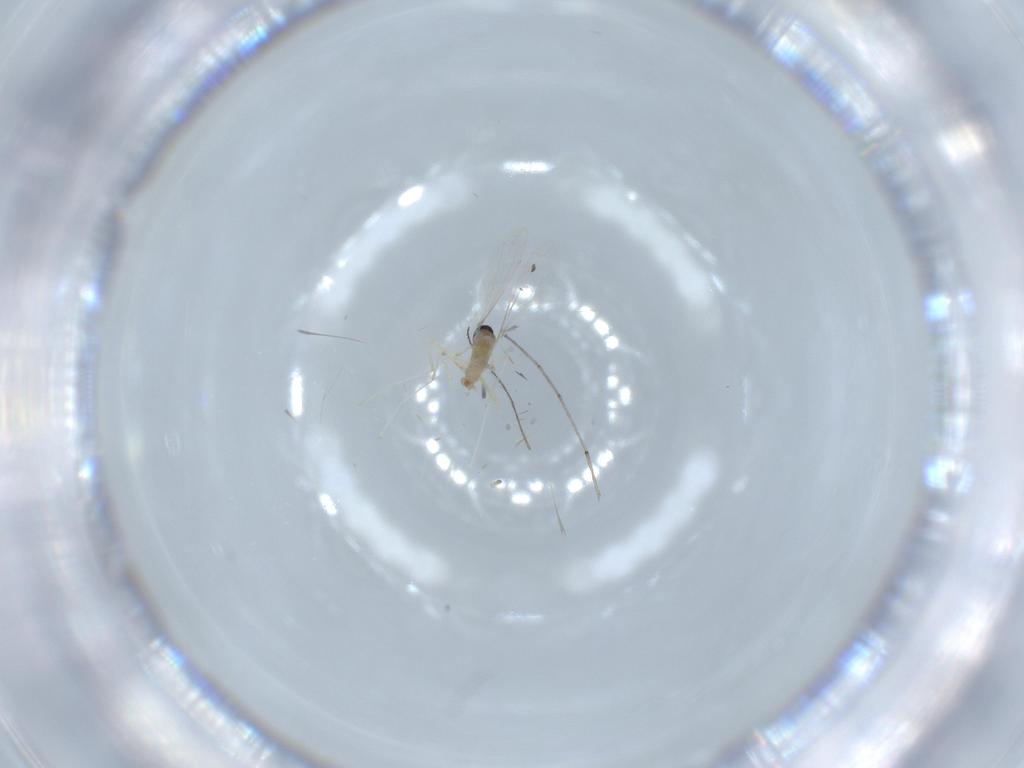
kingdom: Animalia
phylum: Arthropoda
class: Insecta
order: Diptera
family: Cecidomyiidae
